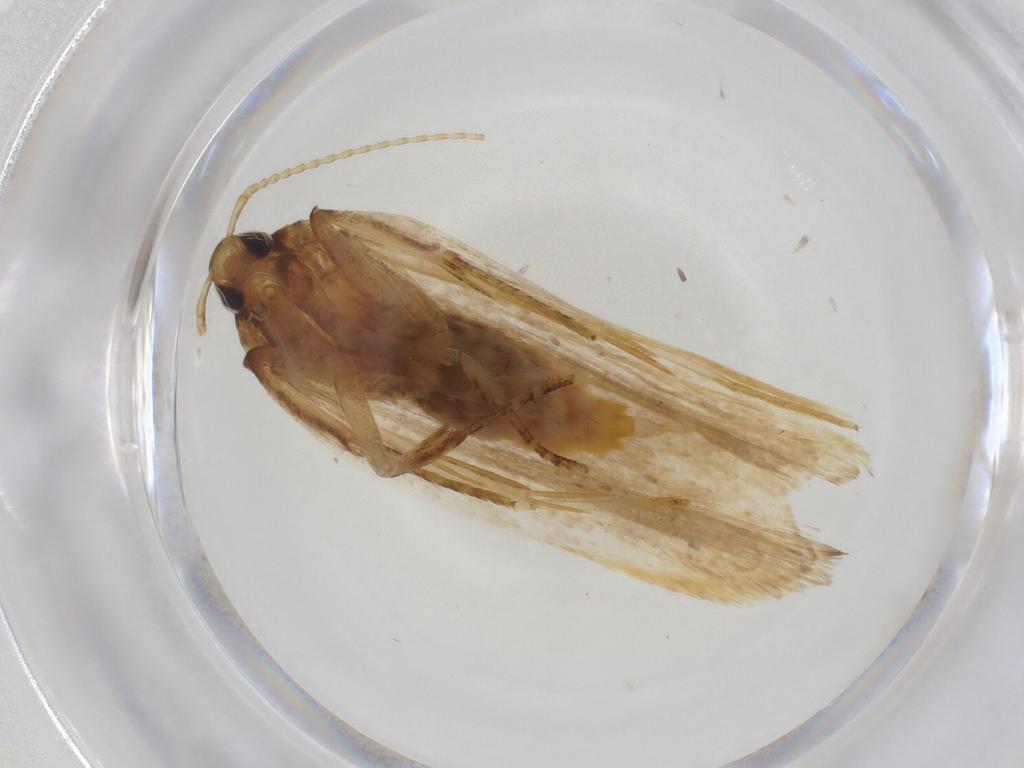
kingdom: Animalia
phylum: Arthropoda
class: Insecta
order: Lepidoptera
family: Lecithoceridae
